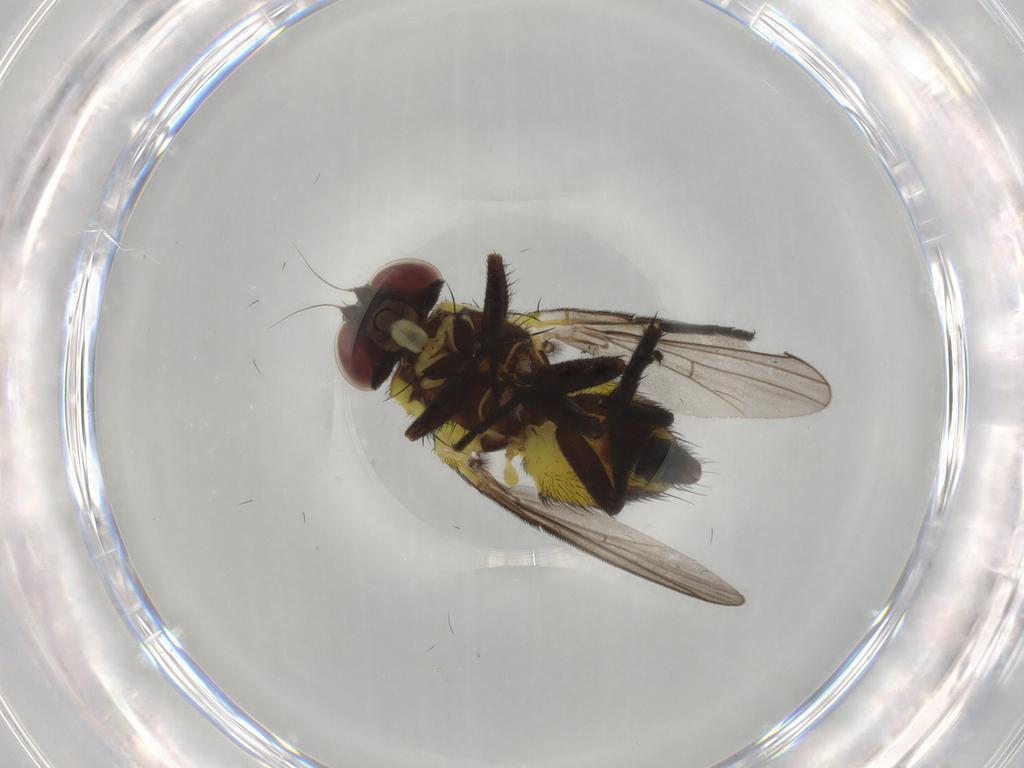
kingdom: Animalia
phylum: Arthropoda
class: Insecta
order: Diptera
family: Agromyzidae
